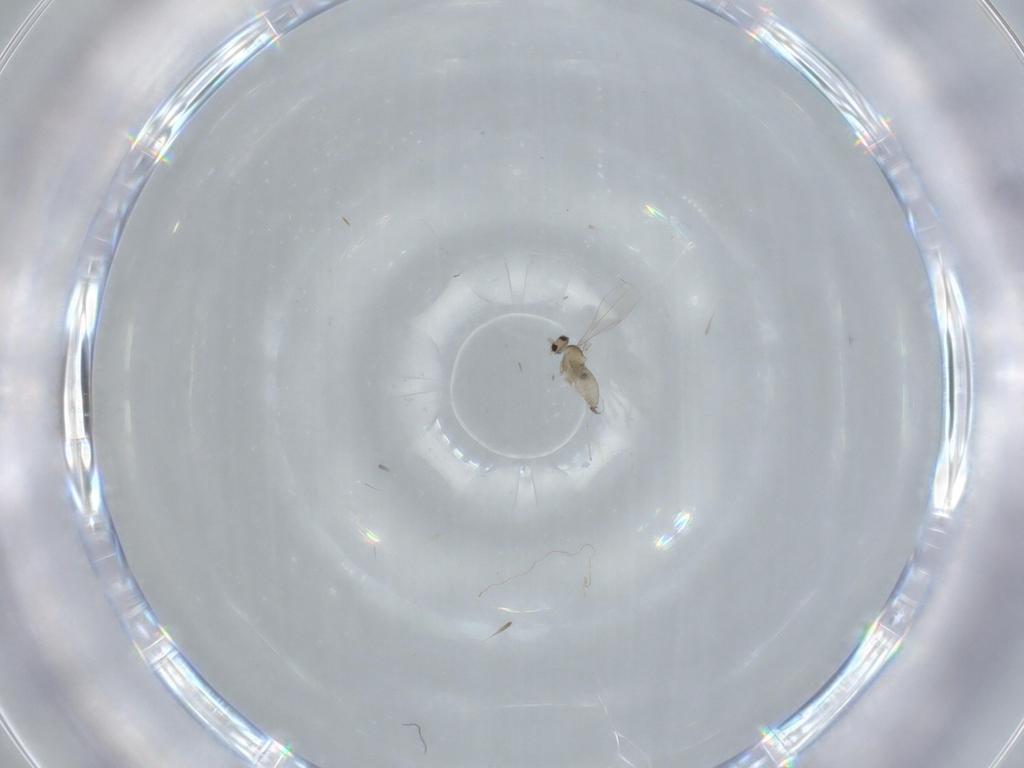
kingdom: Animalia
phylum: Arthropoda
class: Insecta
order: Diptera
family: Cecidomyiidae
